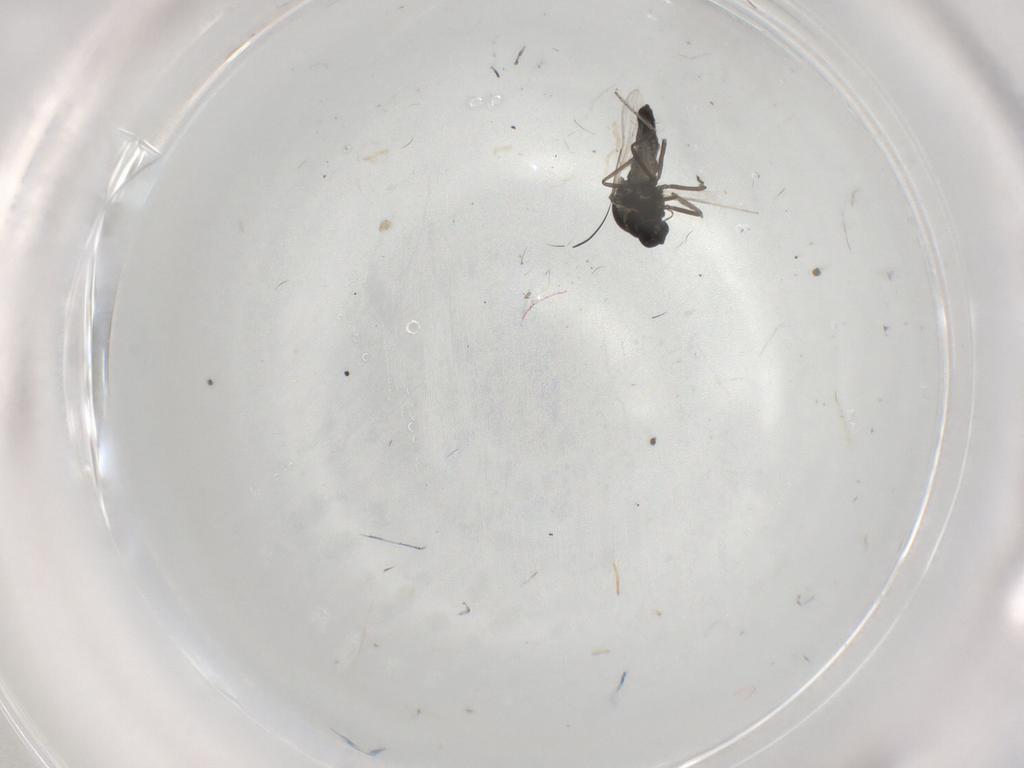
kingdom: Animalia
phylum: Arthropoda
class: Insecta
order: Diptera
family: Ceratopogonidae
